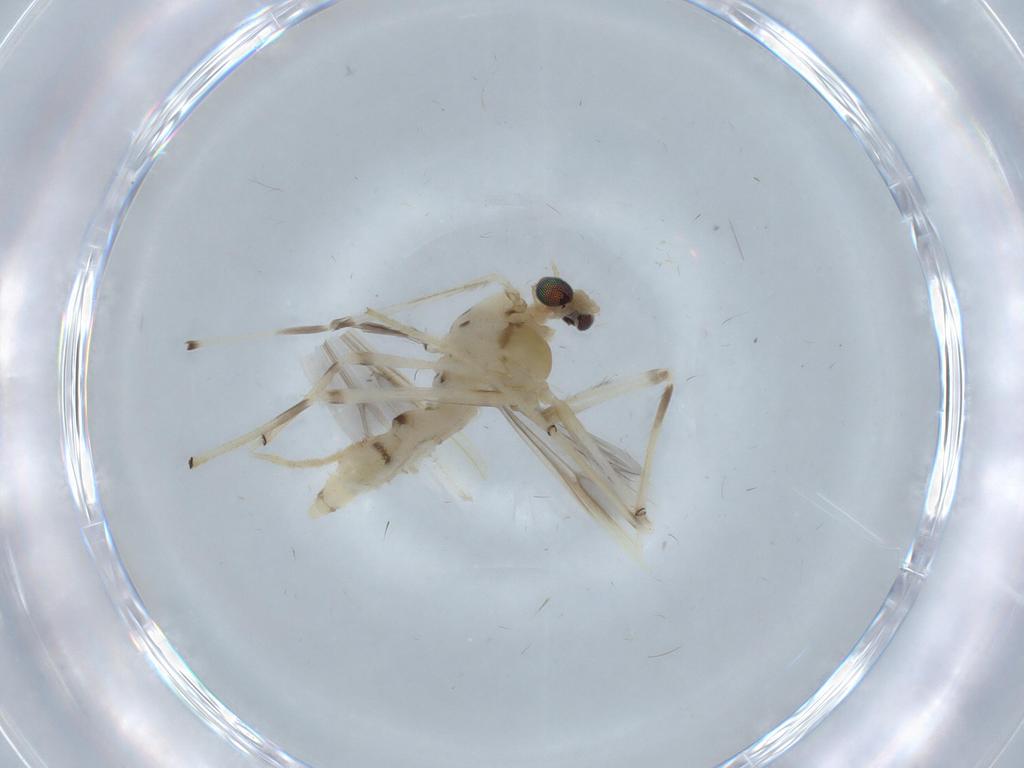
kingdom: Animalia
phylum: Arthropoda
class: Insecta
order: Diptera
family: Chironomidae
